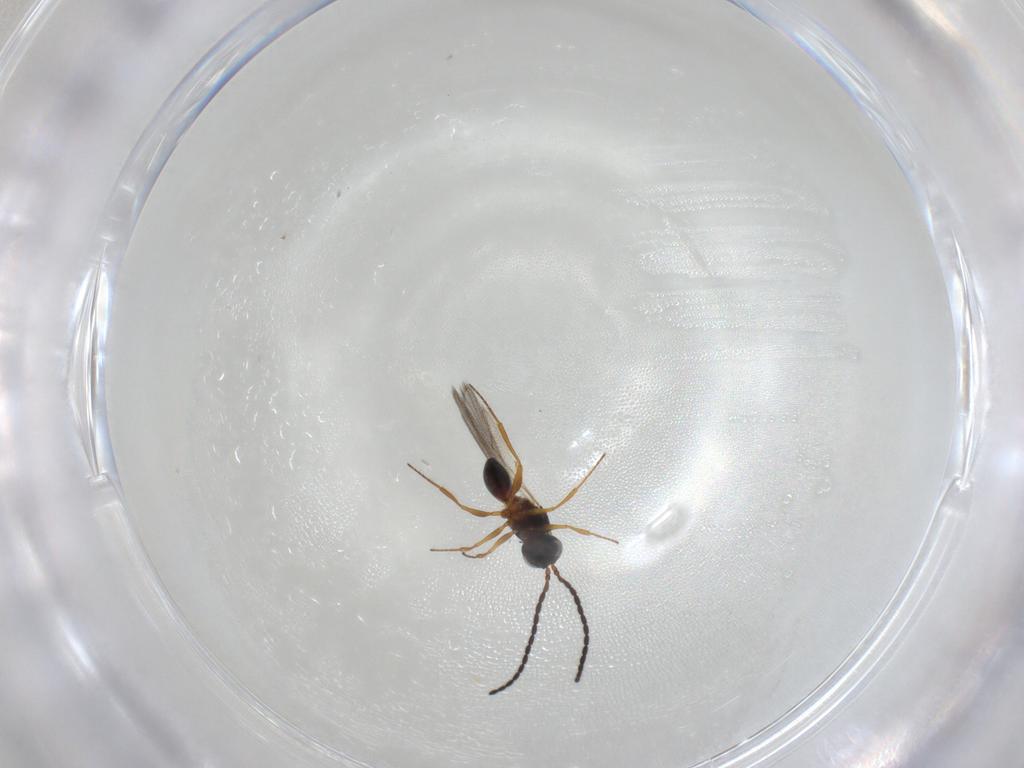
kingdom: Animalia
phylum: Arthropoda
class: Insecta
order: Hymenoptera
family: Figitidae
